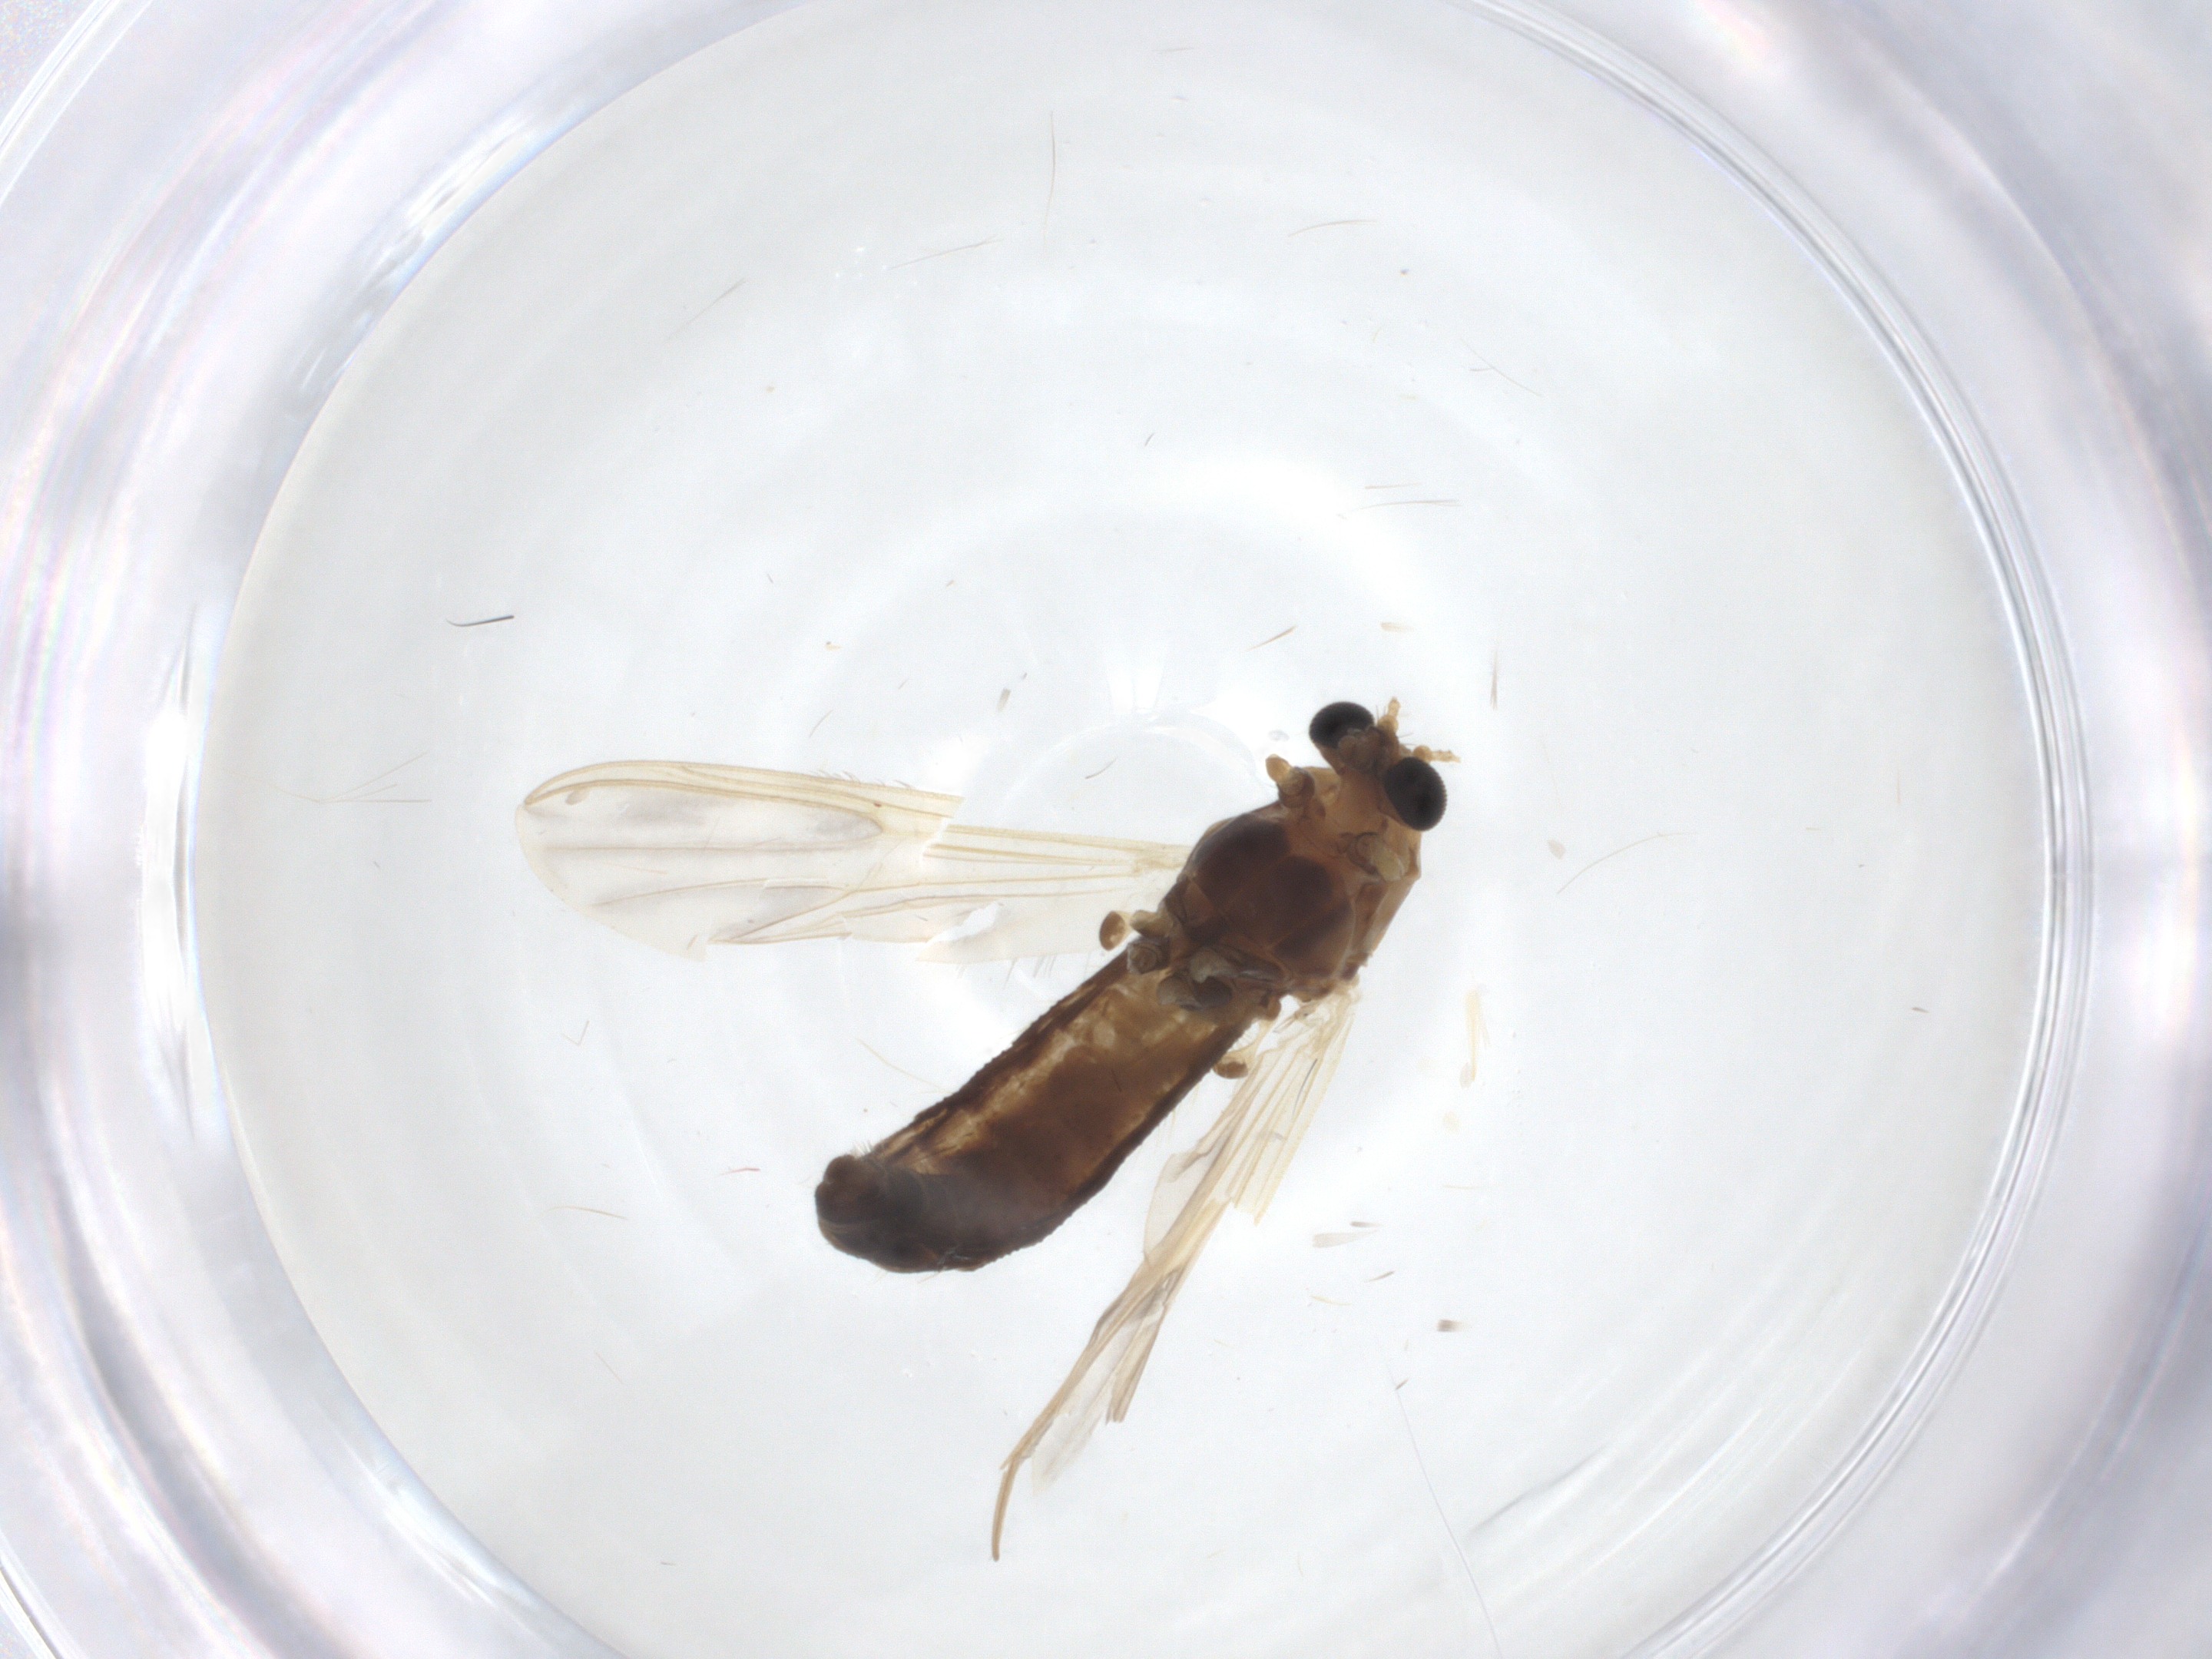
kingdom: Animalia
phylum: Arthropoda
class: Insecta
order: Diptera
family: Chironomidae
